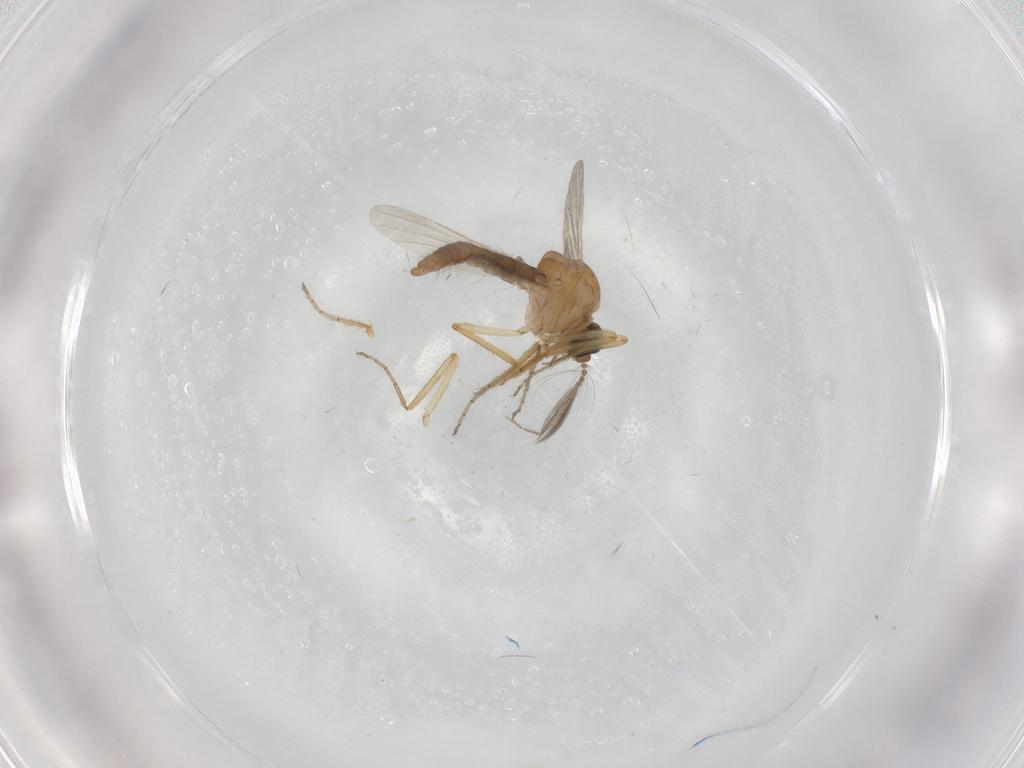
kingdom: Animalia
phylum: Arthropoda
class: Insecta
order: Diptera
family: Ceratopogonidae
